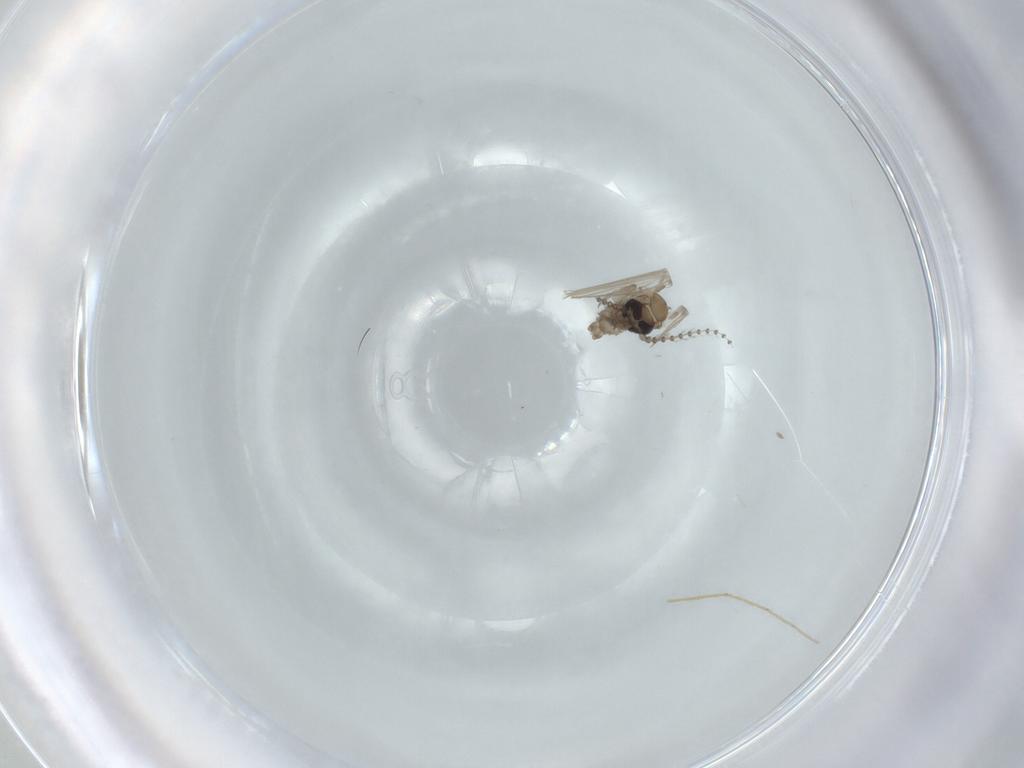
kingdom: Animalia
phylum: Arthropoda
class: Insecta
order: Diptera
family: Psychodidae
